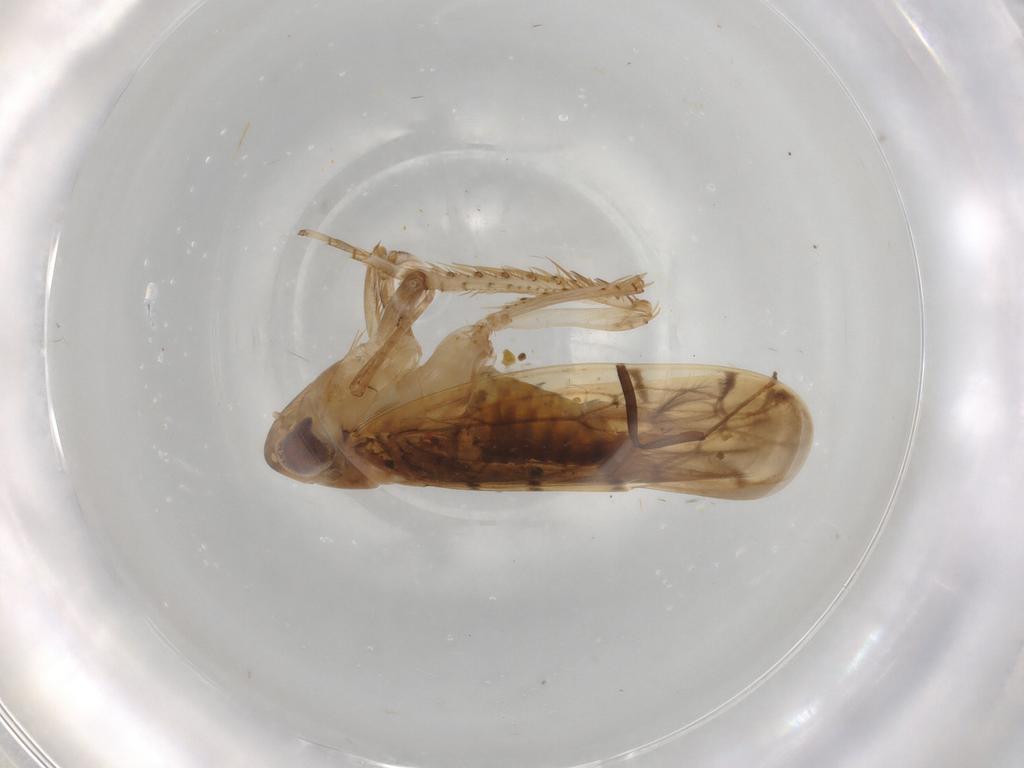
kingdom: Animalia
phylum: Arthropoda
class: Insecta
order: Hemiptera
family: Cicadellidae
